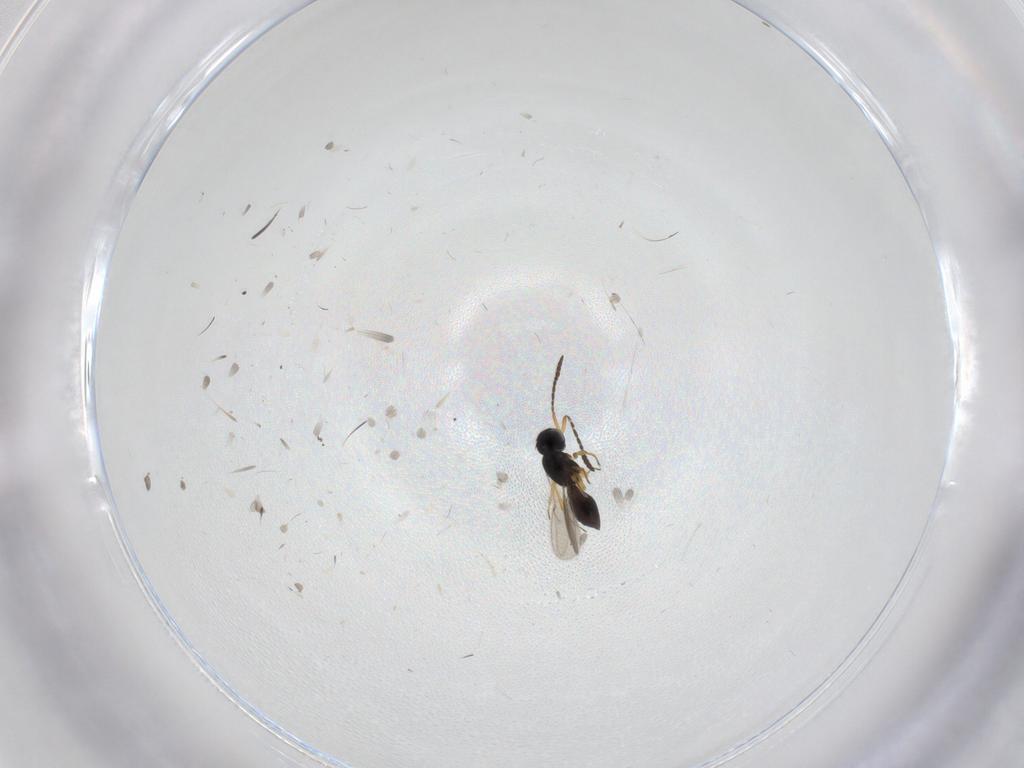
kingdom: Animalia
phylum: Arthropoda
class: Insecta
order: Hymenoptera
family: Scelionidae
